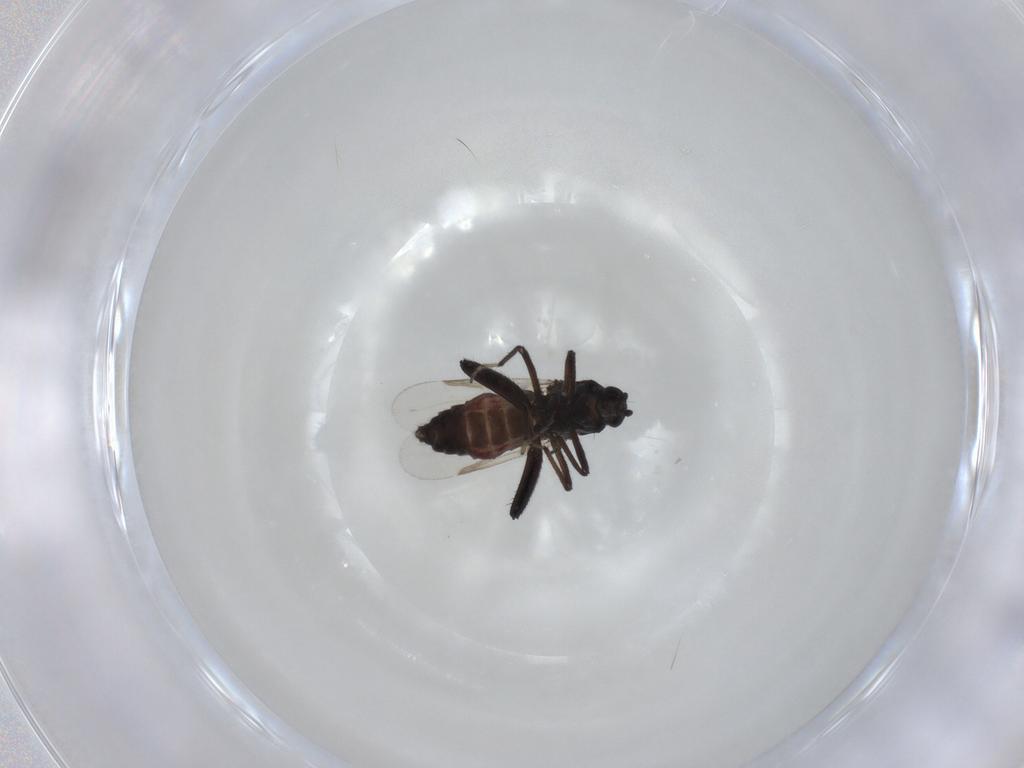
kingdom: Animalia
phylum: Arthropoda
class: Insecta
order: Diptera
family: Ceratopogonidae
